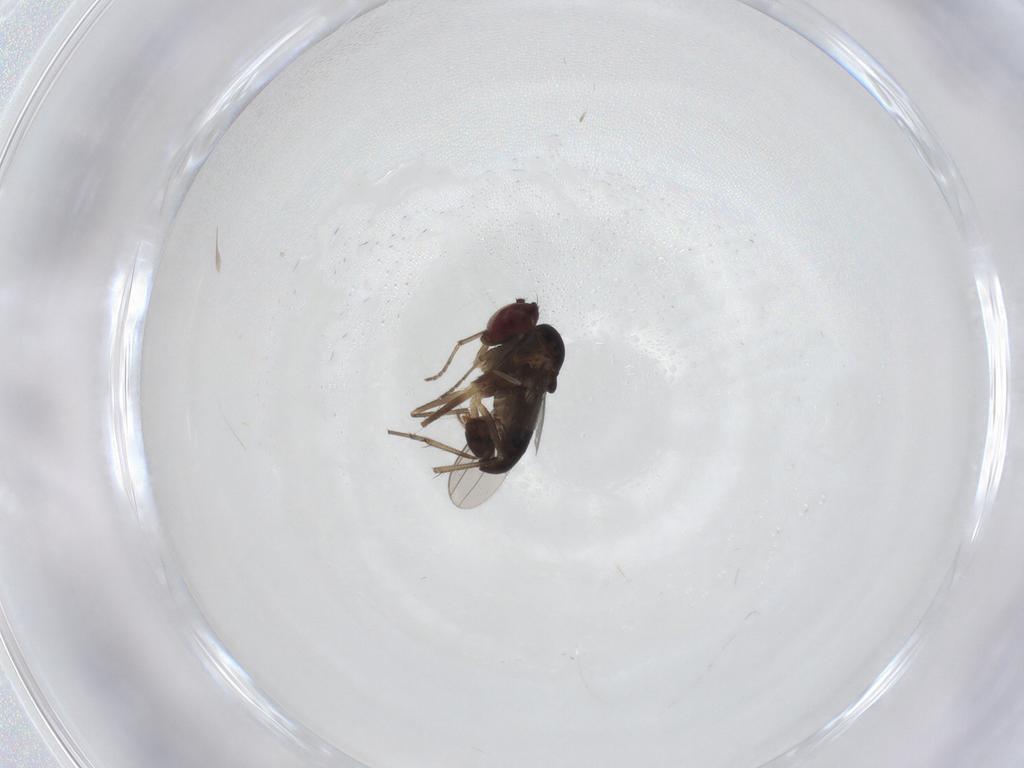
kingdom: Animalia
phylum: Arthropoda
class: Insecta
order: Diptera
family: Chironomidae
